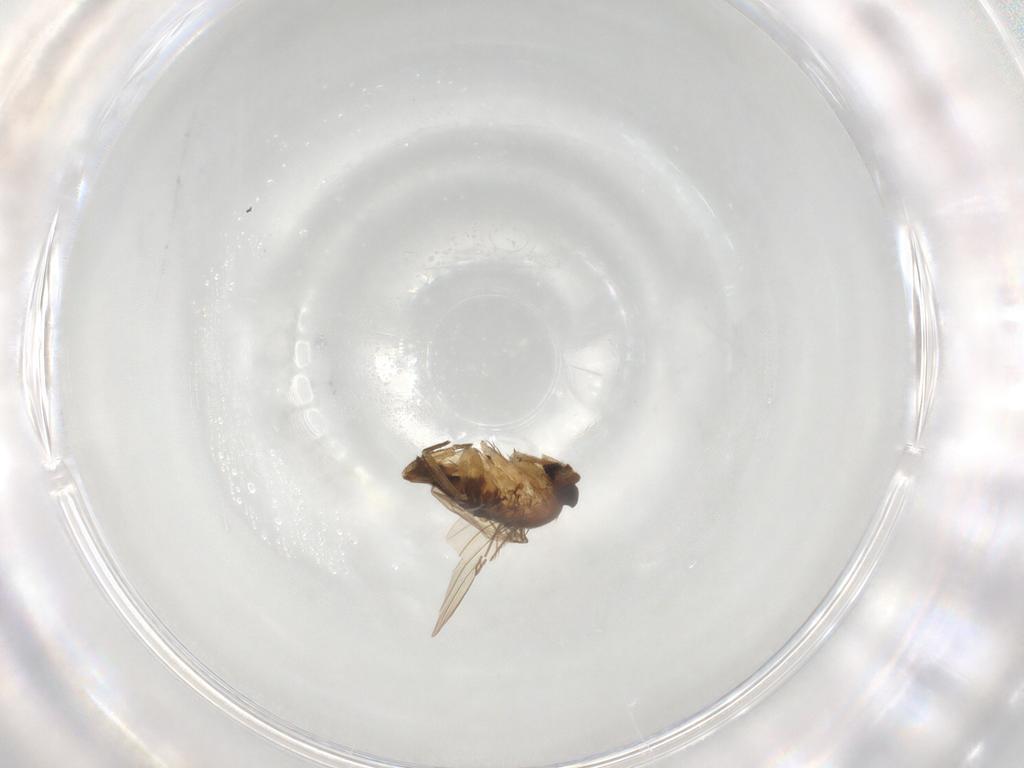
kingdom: Animalia
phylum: Arthropoda
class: Insecta
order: Diptera
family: Phoridae
